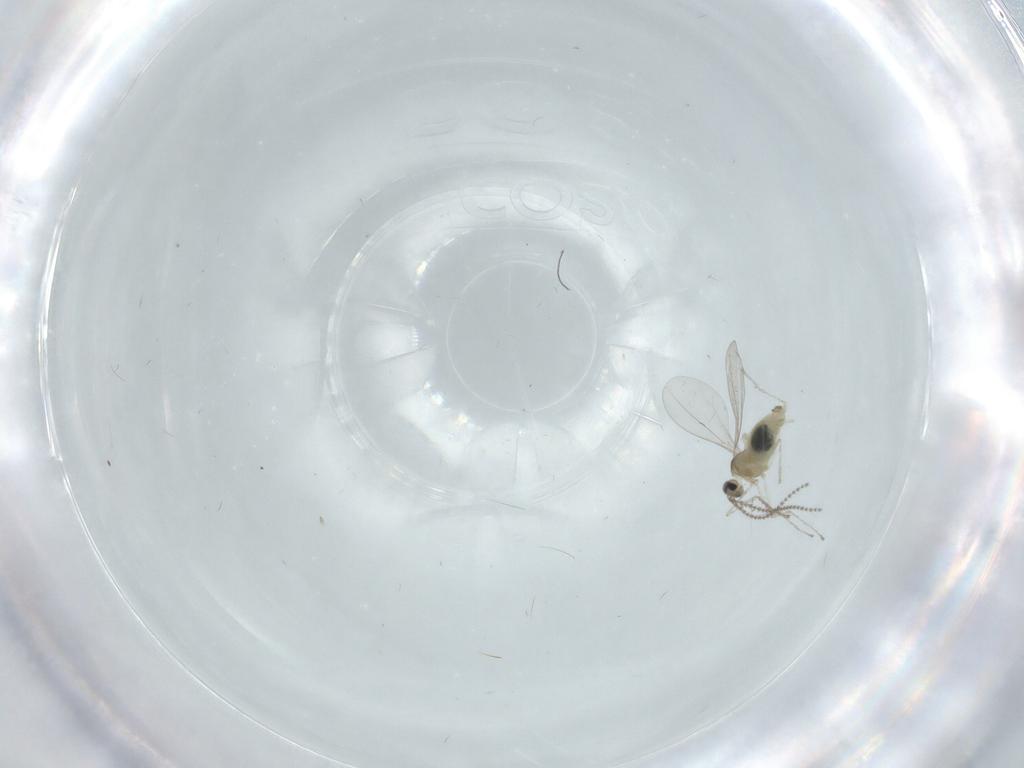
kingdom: Animalia
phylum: Arthropoda
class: Insecta
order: Diptera
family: Cecidomyiidae
